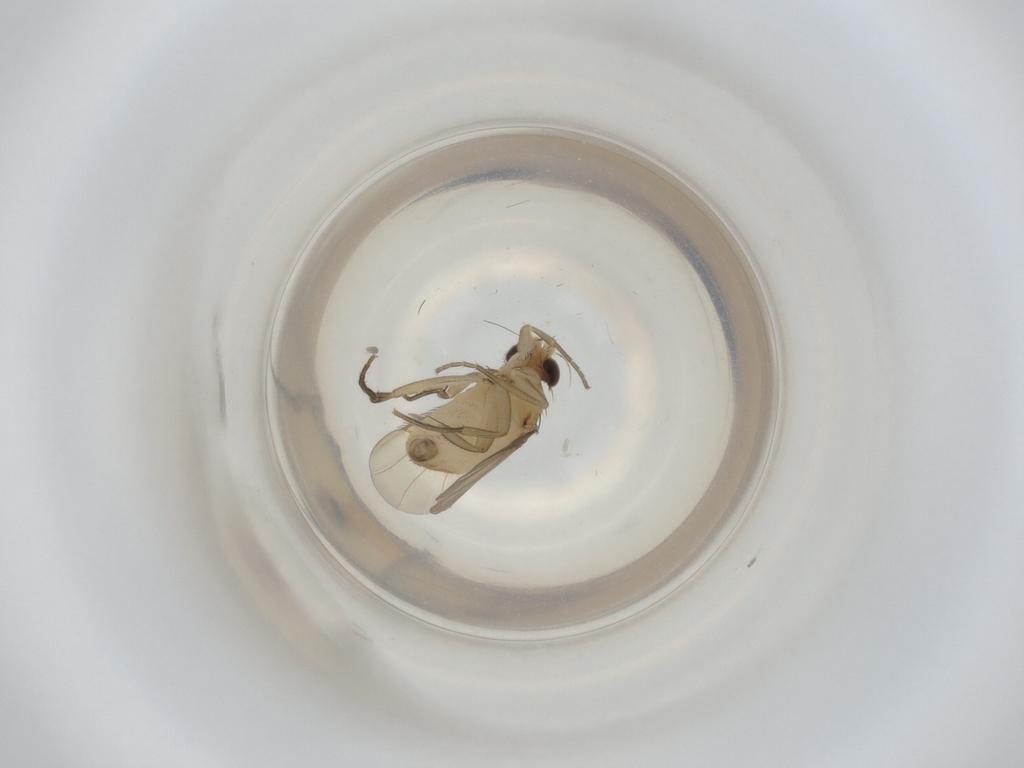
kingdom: Animalia
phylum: Arthropoda
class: Insecta
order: Diptera
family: Phoridae
